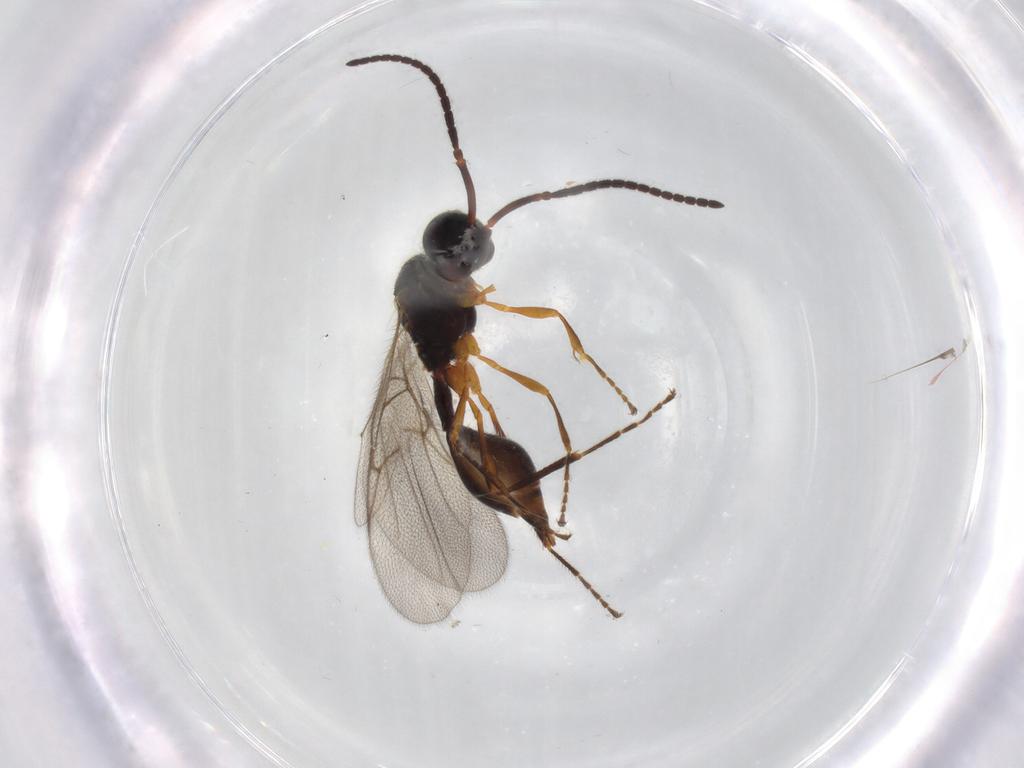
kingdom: Animalia
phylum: Arthropoda
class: Insecta
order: Hymenoptera
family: Diapriidae
